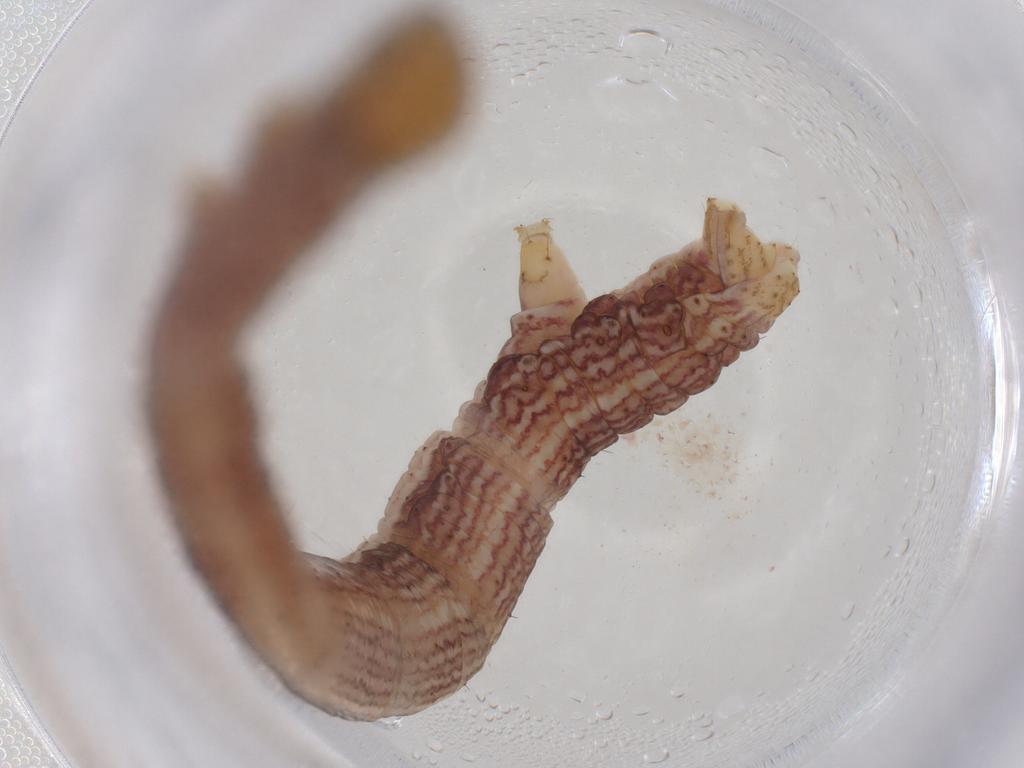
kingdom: Animalia
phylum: Arthropoda
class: Insecta
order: Lepidoptera
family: Geometridae
